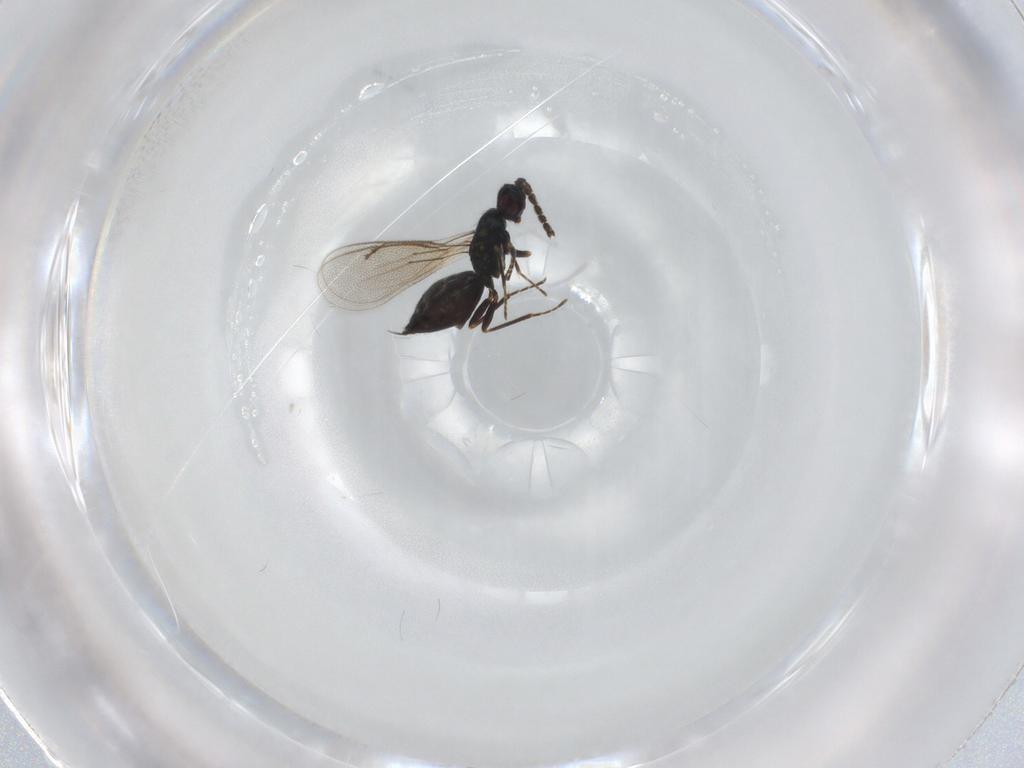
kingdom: Animalia
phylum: Arthropoda
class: Insecta
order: Hymenoptera
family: Eulophidae
